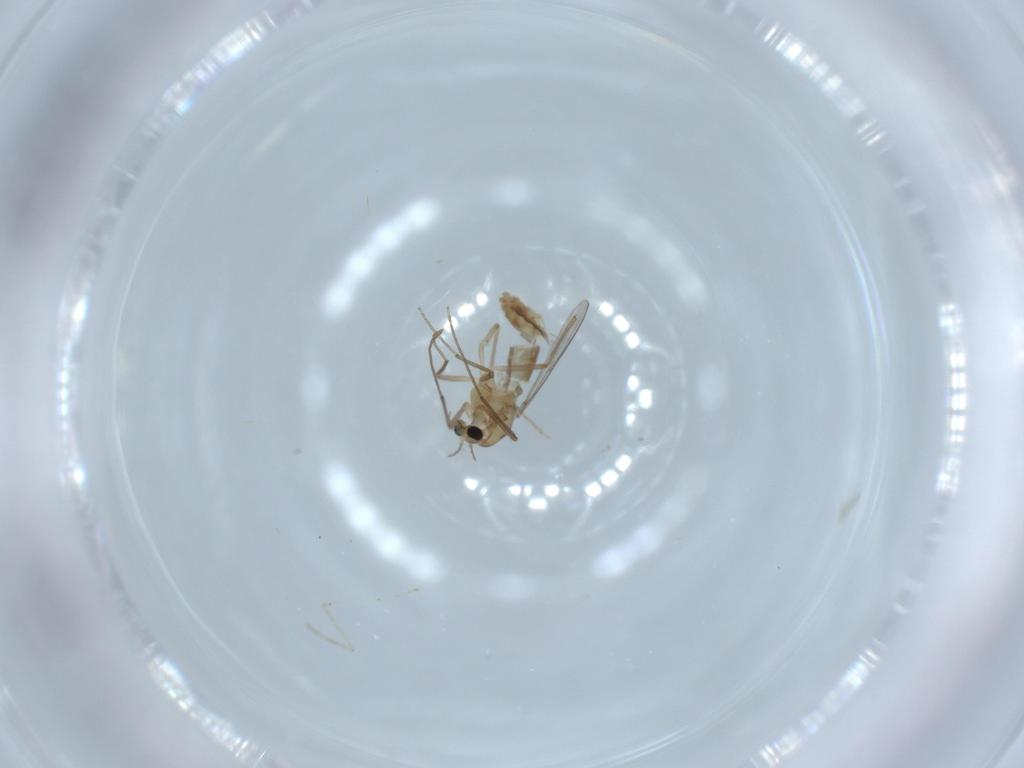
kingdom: Animalia
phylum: Arthropoda
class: Insecta
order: Diptera
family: Chironomidae
